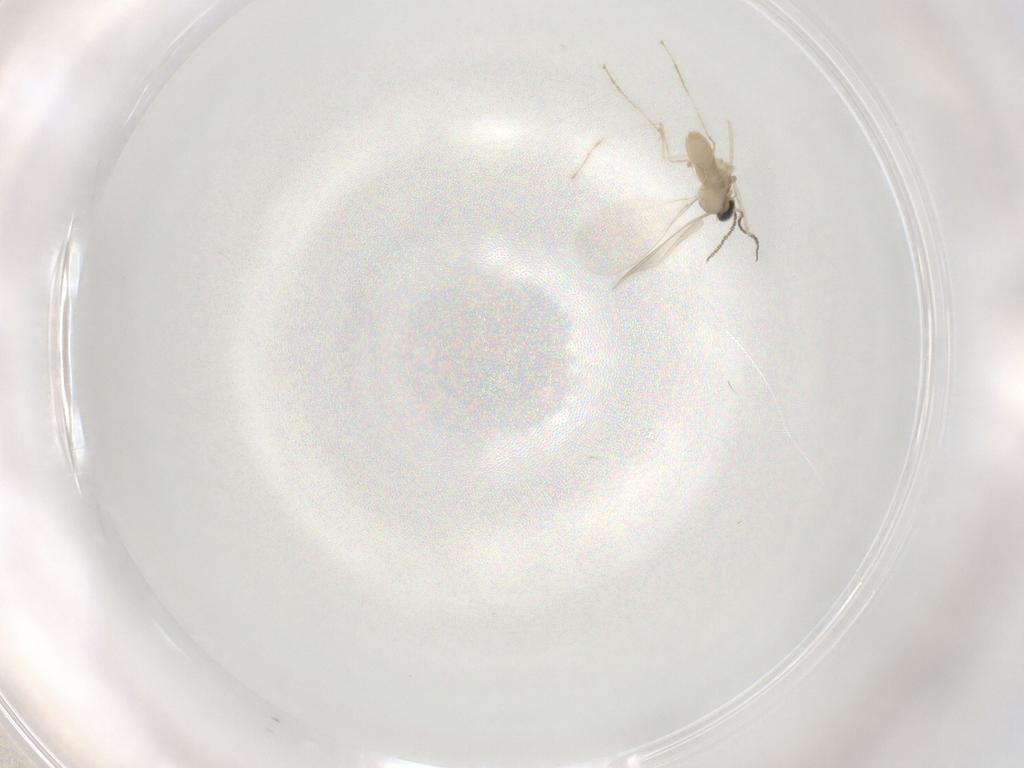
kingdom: Animalia
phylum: Arthropoda
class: Insecta
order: Diptera
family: Cecidomyiidae
